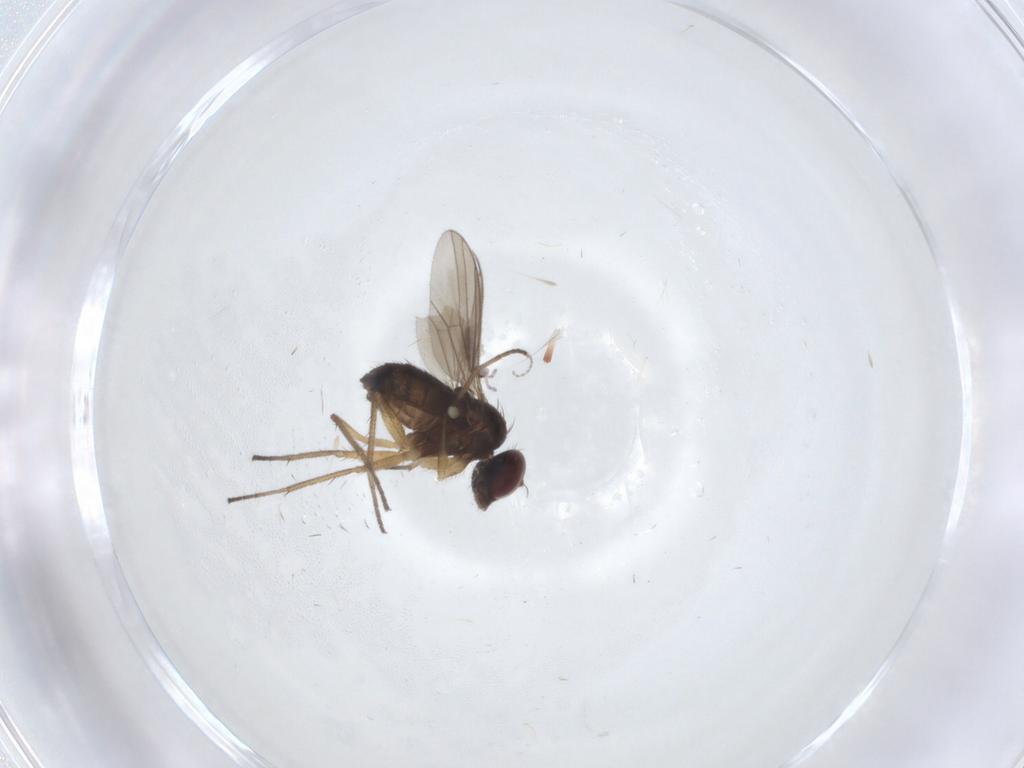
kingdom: Animalia
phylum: Arthropoda
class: Insecta
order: Diptera
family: Dolichopodidae
